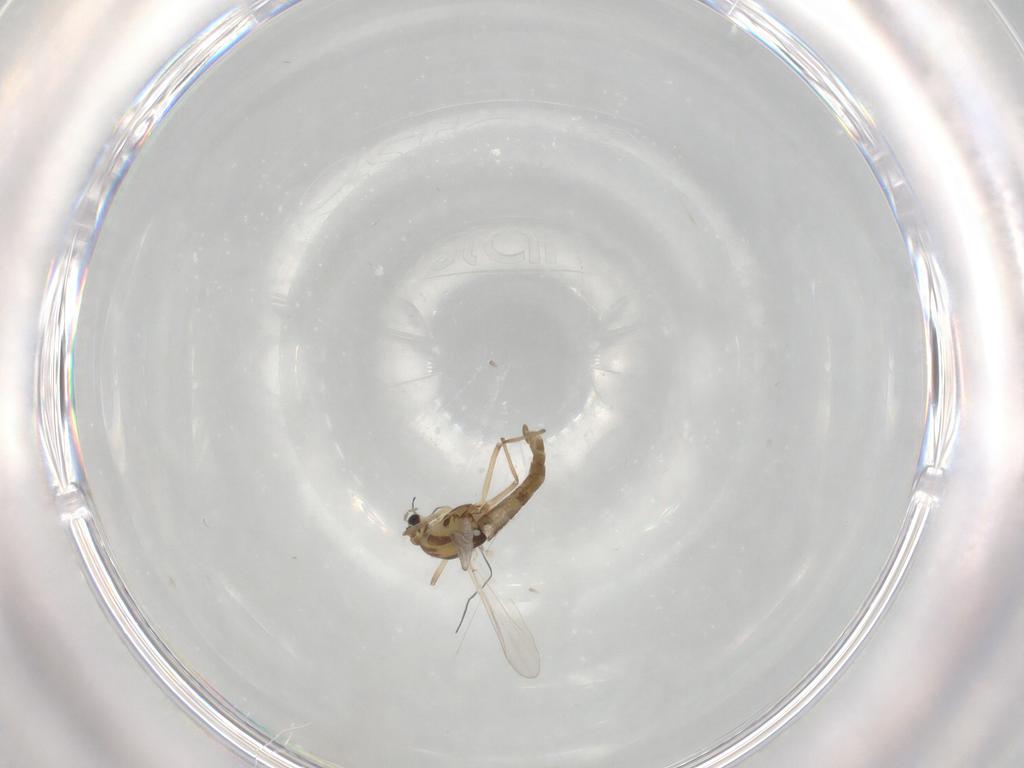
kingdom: Animalia
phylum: Arthropoda
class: Insecta
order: Diptera
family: Chironomidae
